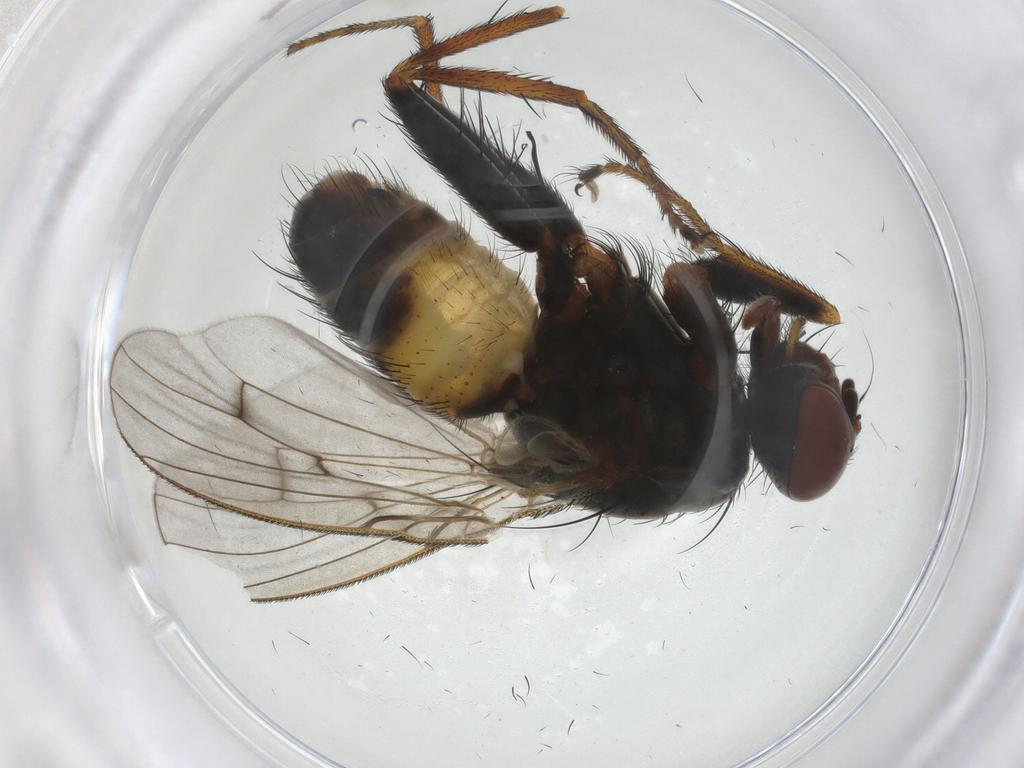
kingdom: Animalia
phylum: Arthropoda
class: Insecta
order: Diptera
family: Muscidae
